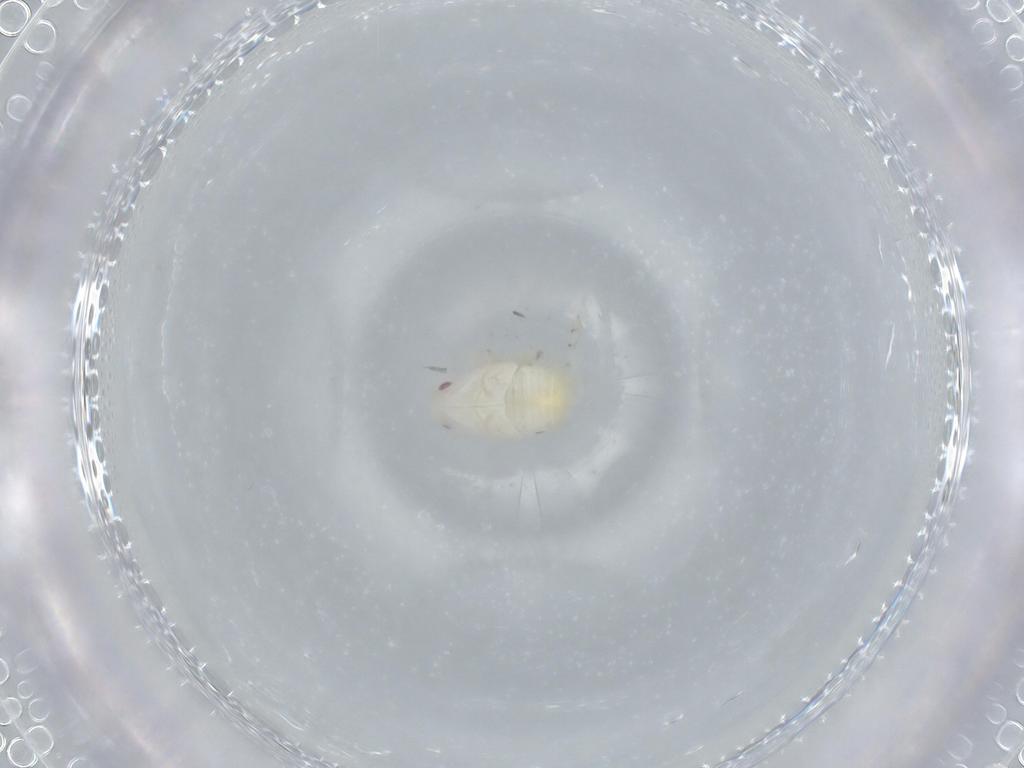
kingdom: Animalia
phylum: Arthropoda
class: Insecta
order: Hemiptera
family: Flatidae
